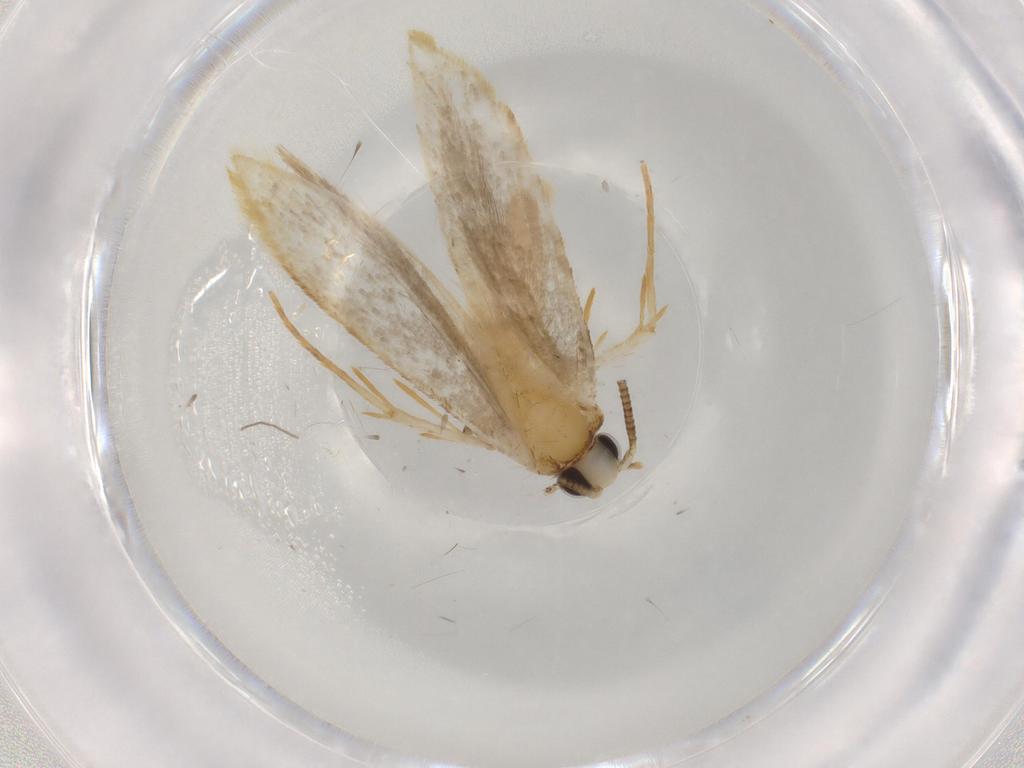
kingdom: Animalia
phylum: Arthropoda
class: Insecta
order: Lepidoptera
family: Tineidae
